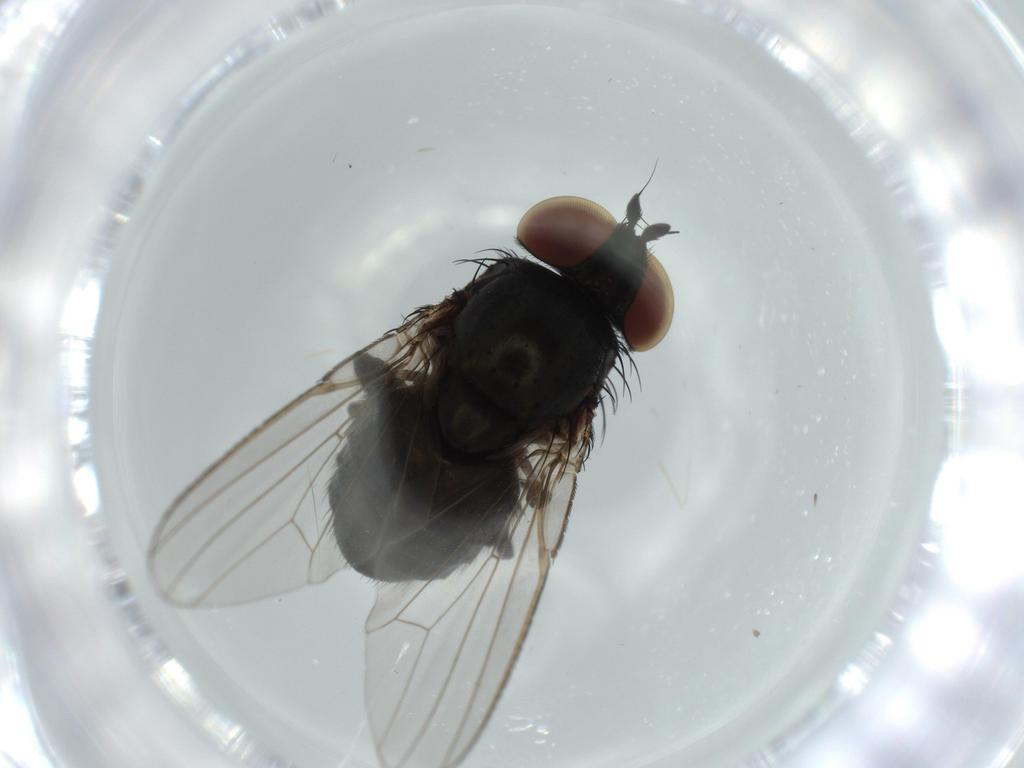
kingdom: Animalia
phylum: Arthropoda
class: Insecta
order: Diptera
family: Milichiidae
